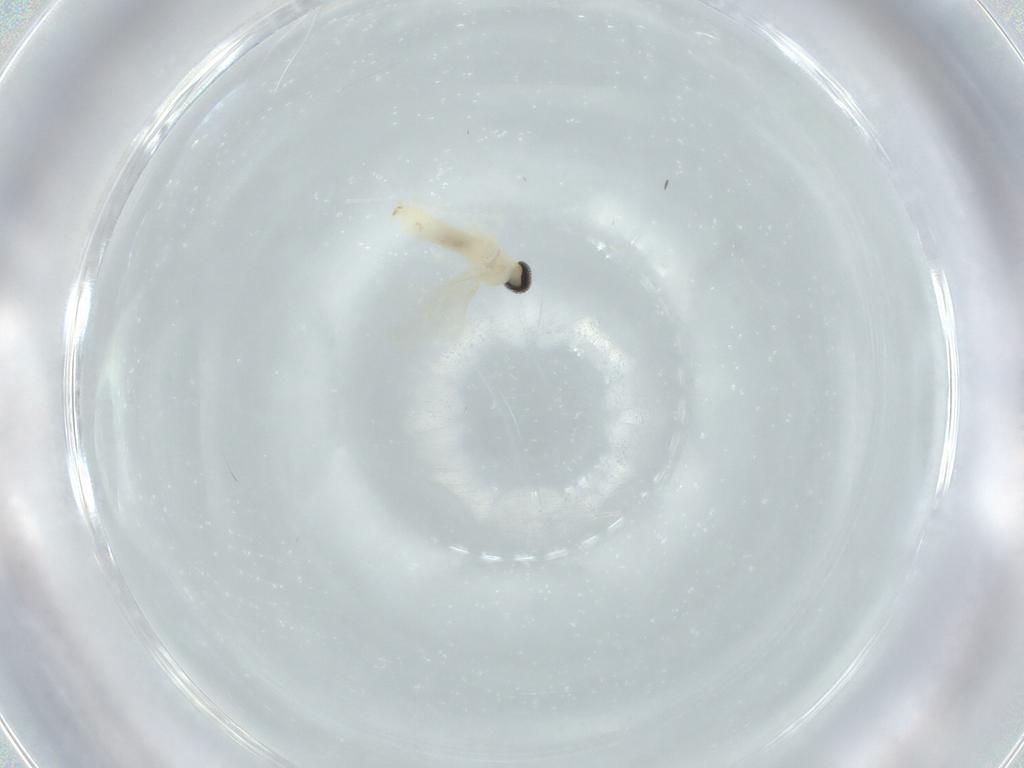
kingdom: Animalia
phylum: Arthropoda
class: Insecta
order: Diptera
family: Cecidomyiidae
